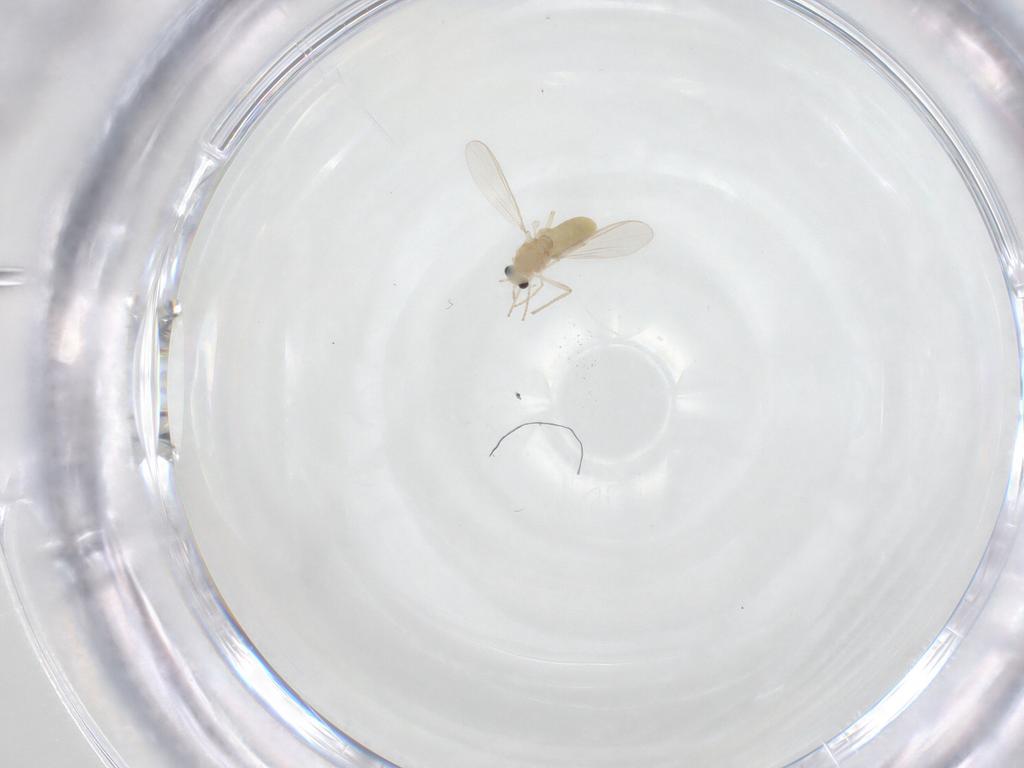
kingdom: Animalia
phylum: Arthropoda
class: Insecta
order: Diptera
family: Chironomidae
